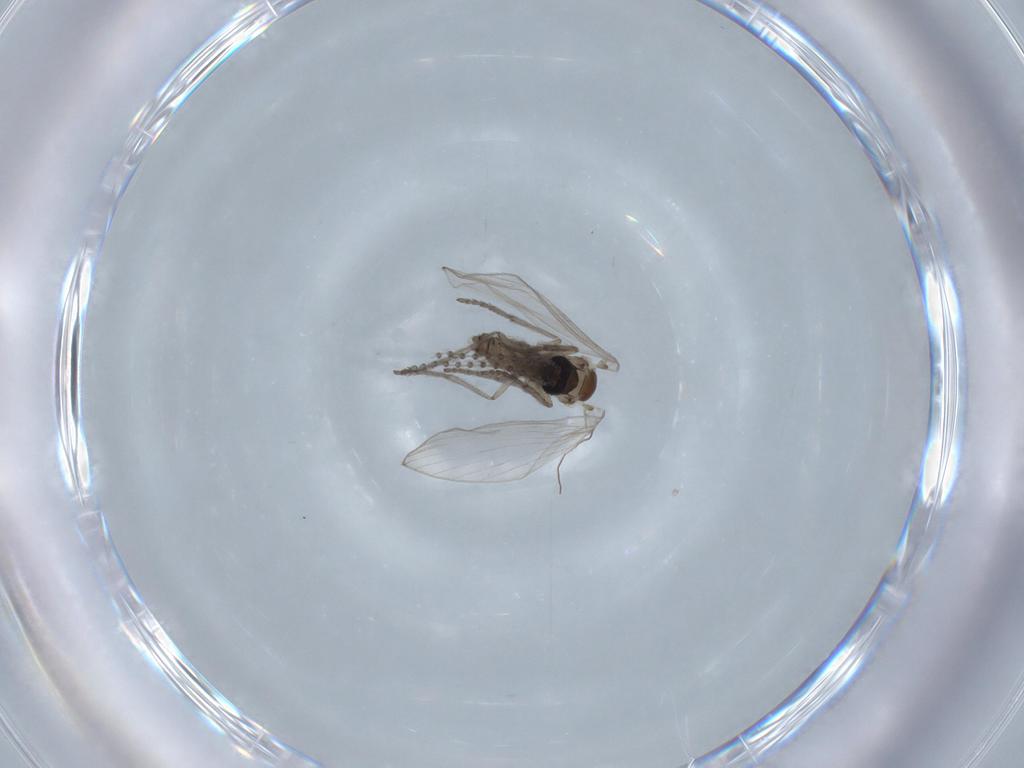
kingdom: Animalia
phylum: Arthropoda
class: Insecta
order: Diptera
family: Psychodidae
